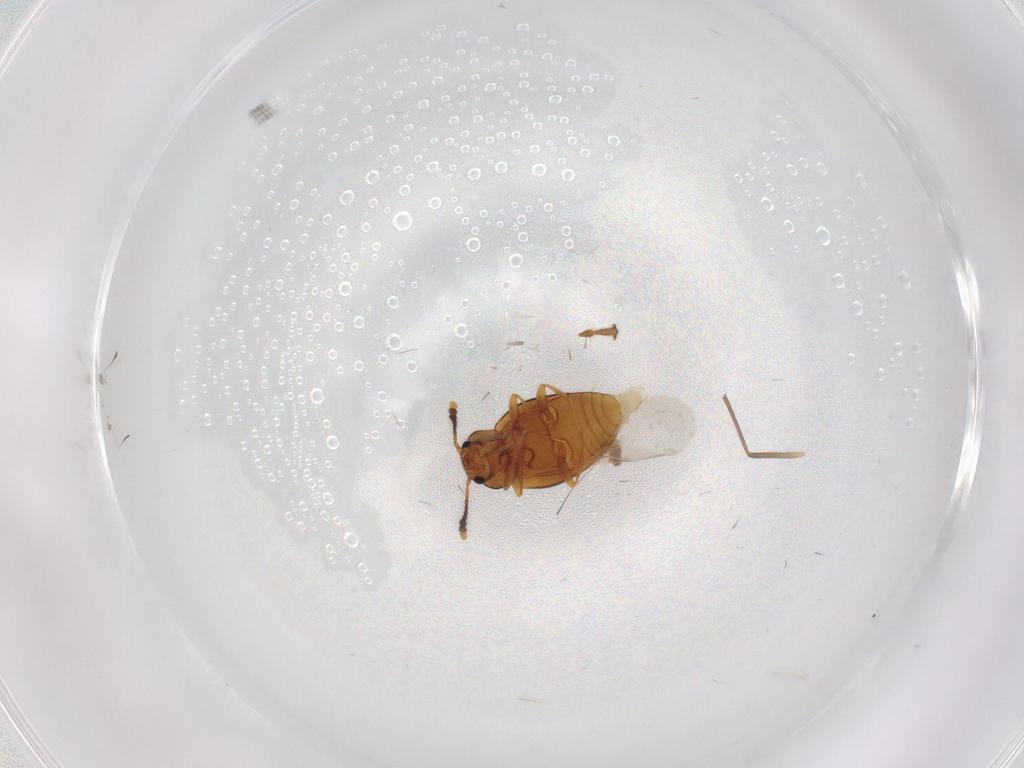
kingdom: Animalia
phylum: Arthropoda
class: Insecta
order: Coleoptera
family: Erotylidae
